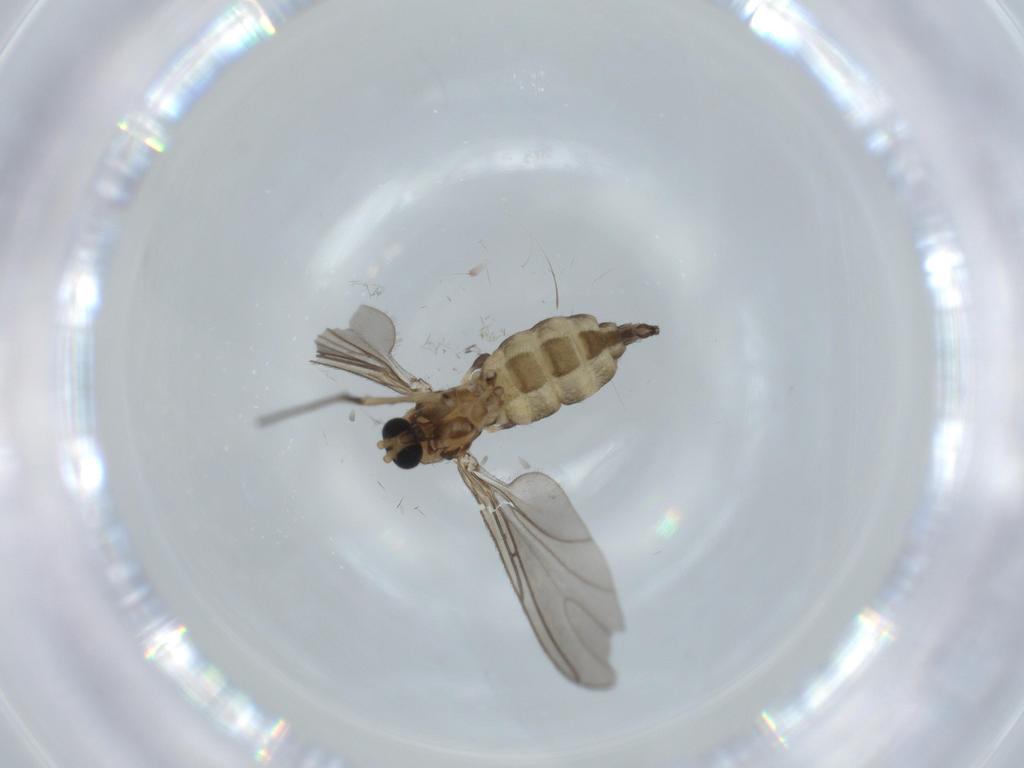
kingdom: Animalia
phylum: Arthropoda
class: Insecta
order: Diptera
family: Sciaridae
